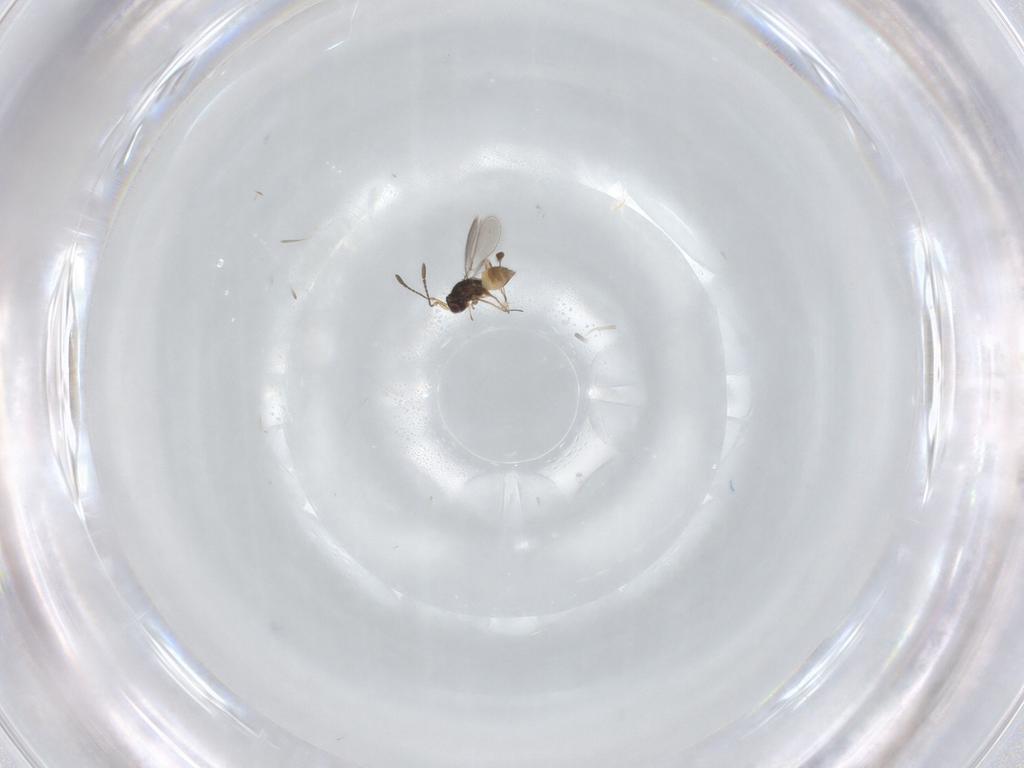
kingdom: Animalia
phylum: Arthropoda
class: Insecta
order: Hymenoptera
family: Mymaridae
